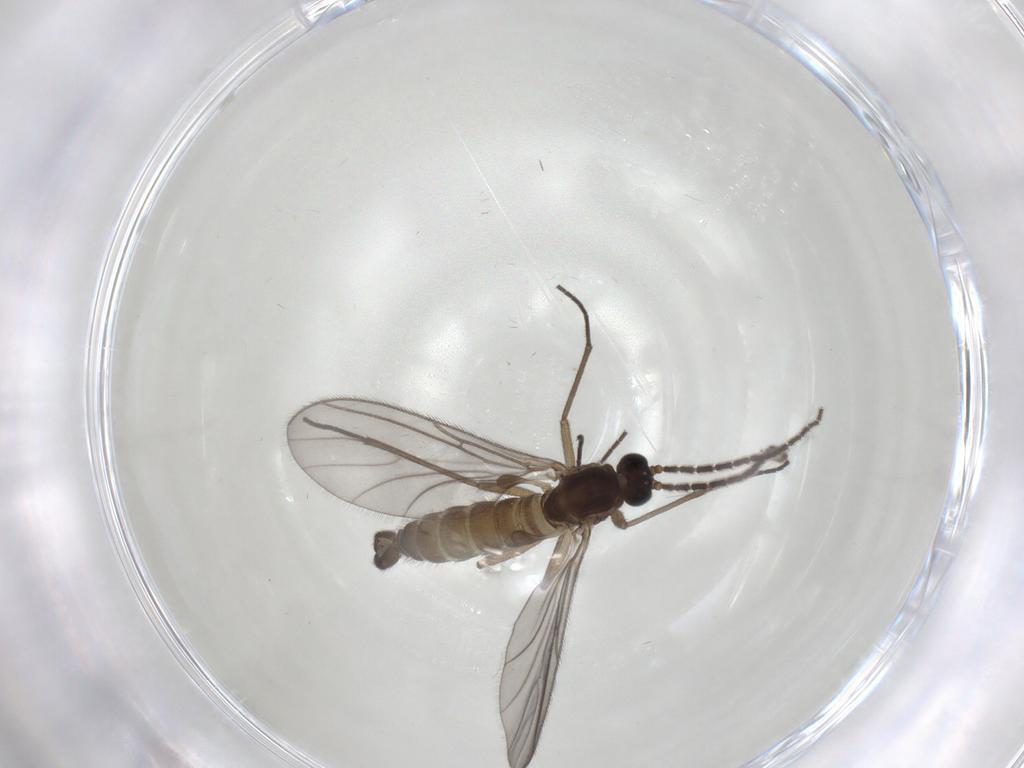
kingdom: Animalia
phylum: Arthropoda
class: Insecta
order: Diptera
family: Sciaridae
